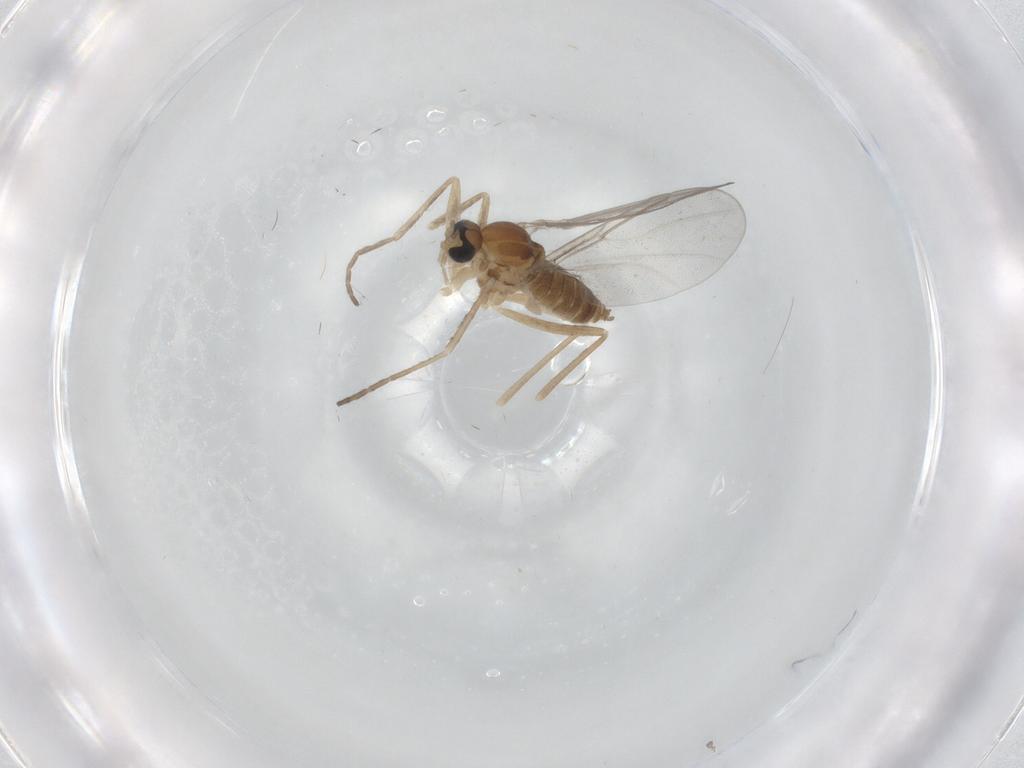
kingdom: Animalia
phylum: Arthropoda
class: Insecta
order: Diptera
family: Cecidomyiidae
